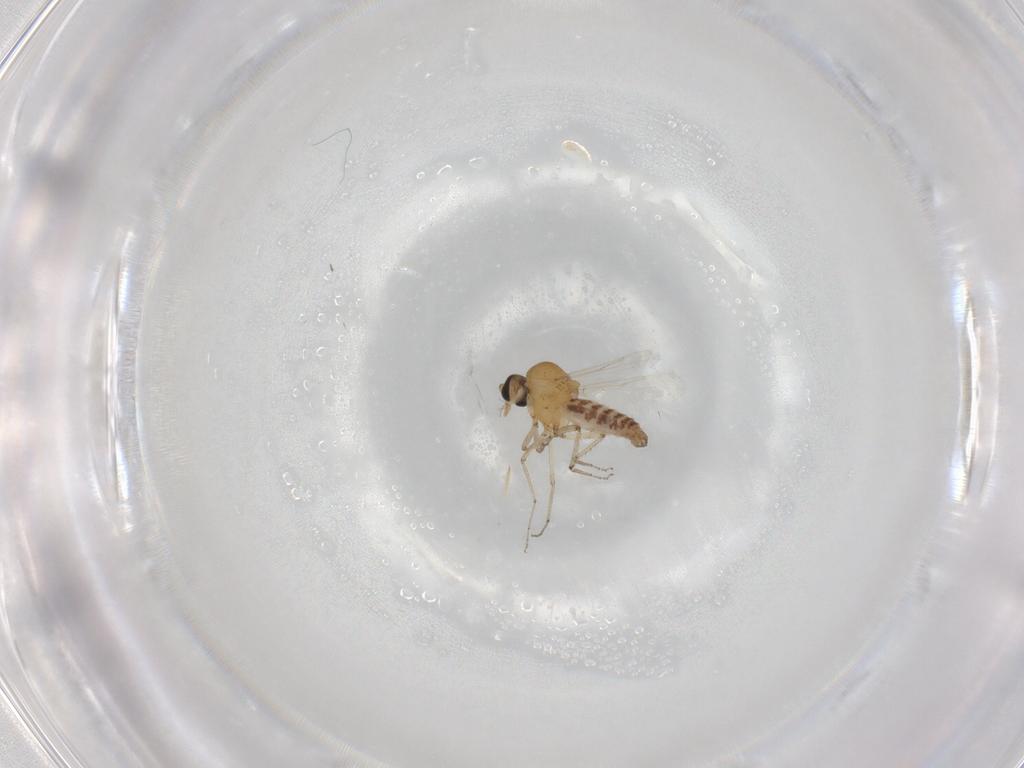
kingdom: Animalia
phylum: Arthropoda
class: Insecta
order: Diptera
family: Ceratopogonidae
